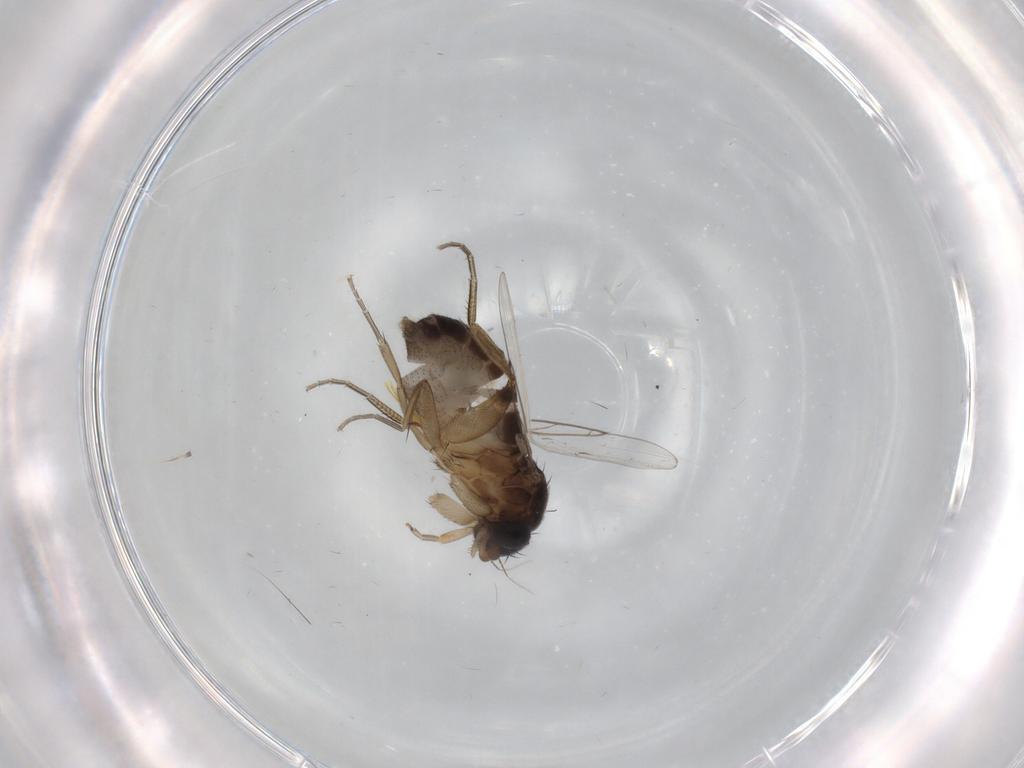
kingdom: Animalia
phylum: Arthropoda
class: Insecta
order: Diptera
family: Phoridae
